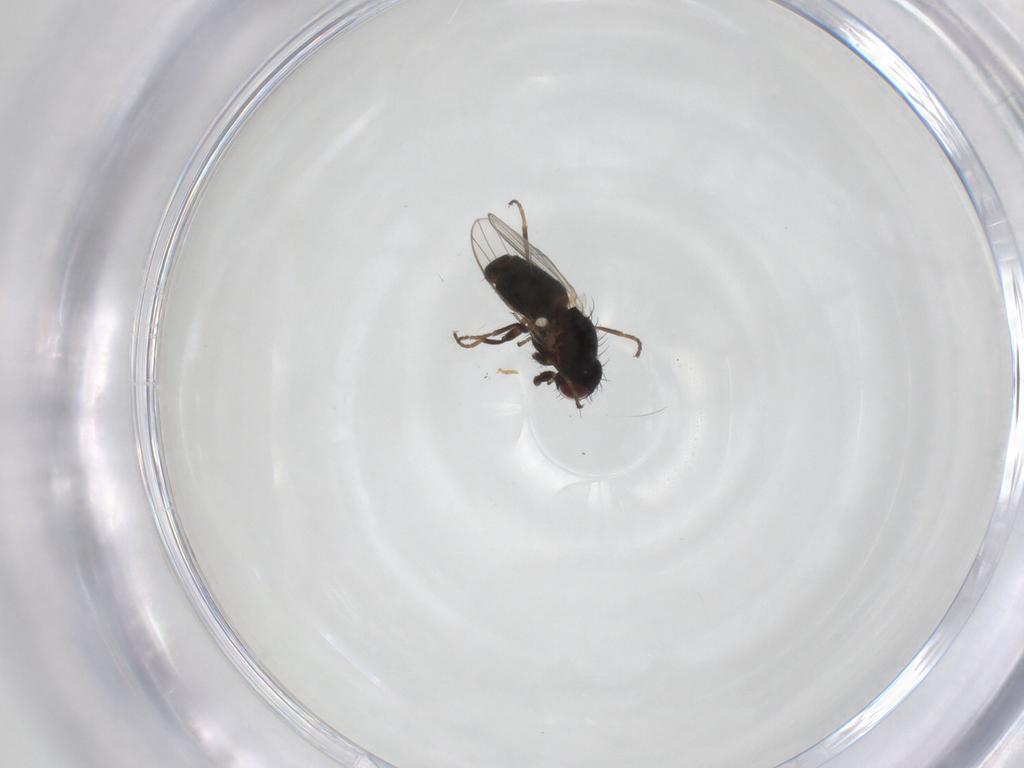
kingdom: Animalia
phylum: Arthropoda
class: Insecta
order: Diptera
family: Carnidae
